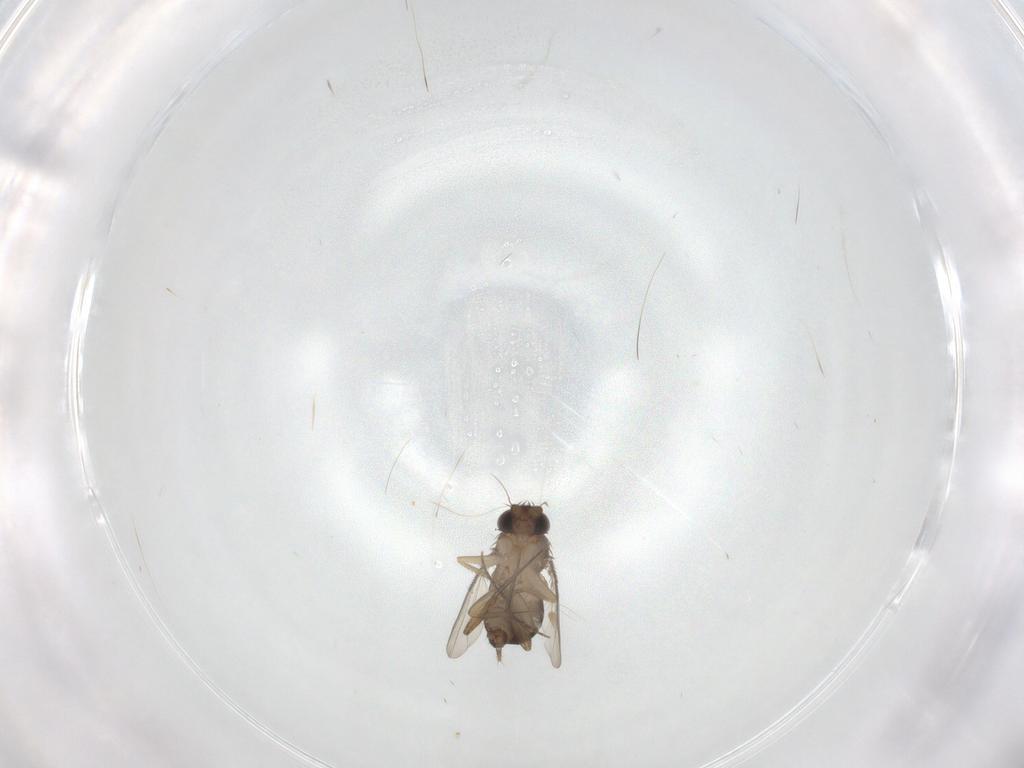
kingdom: Animalia
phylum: Arthropoda
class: Insecta
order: Diptera
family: Phoridae
